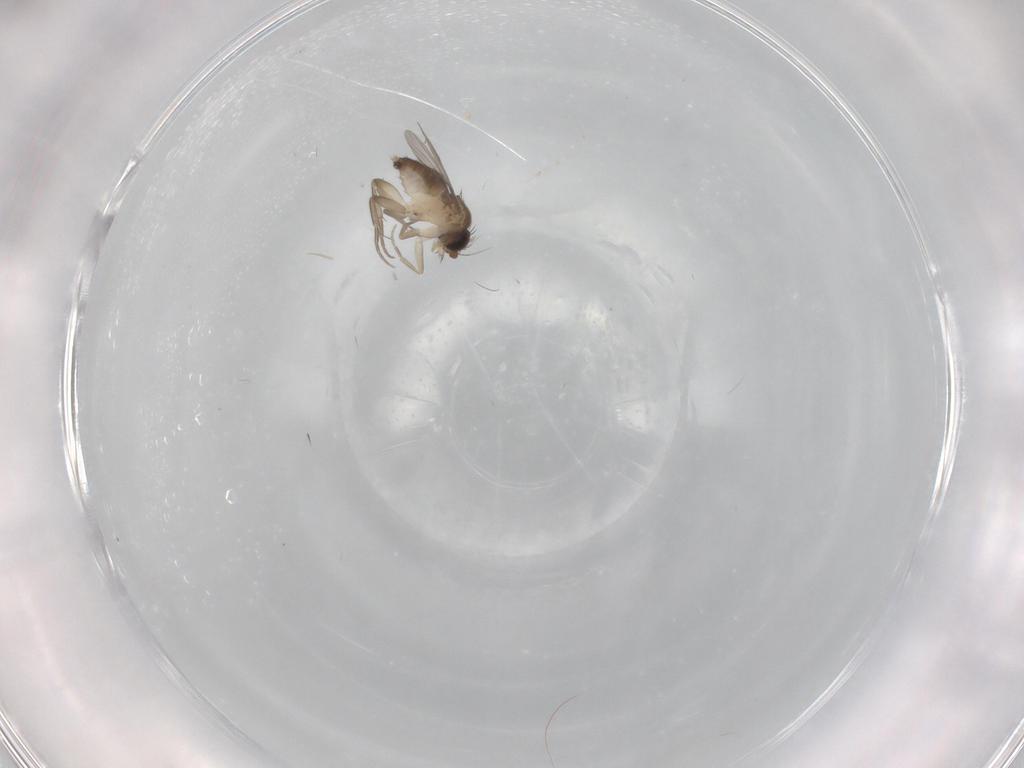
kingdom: Animalia
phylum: Arthropoda
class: Insecta
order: Diptera
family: Phoridae
